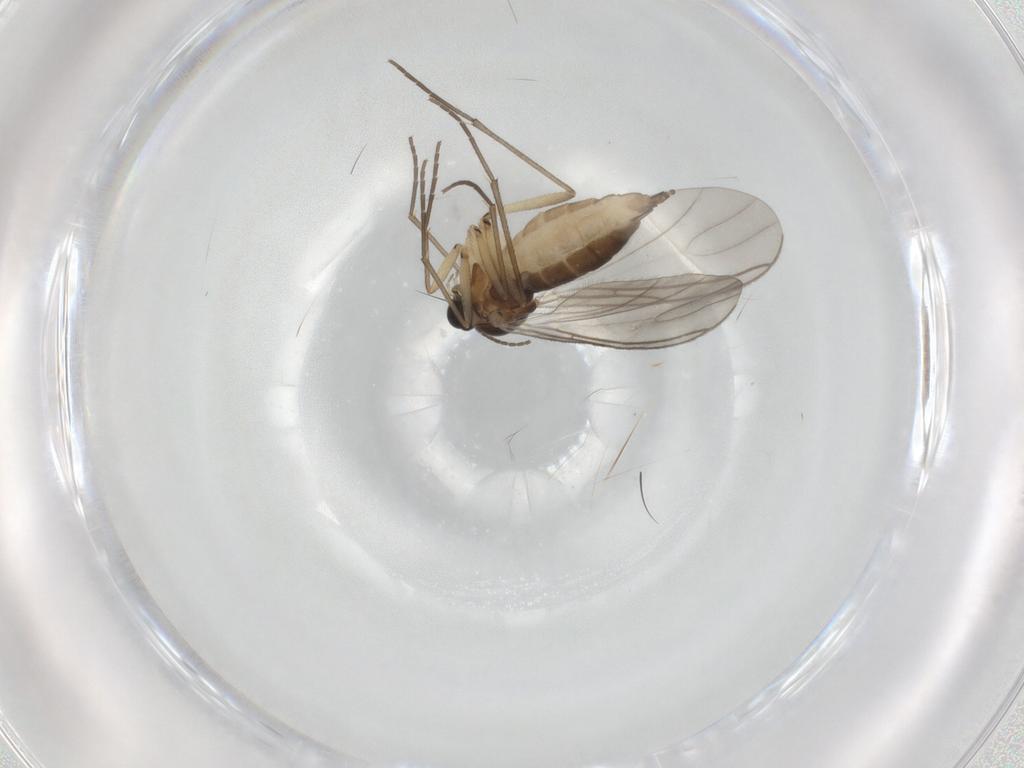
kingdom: Animalia
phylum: Arthropoda
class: Insecta
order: Diptera
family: Sciaridae
